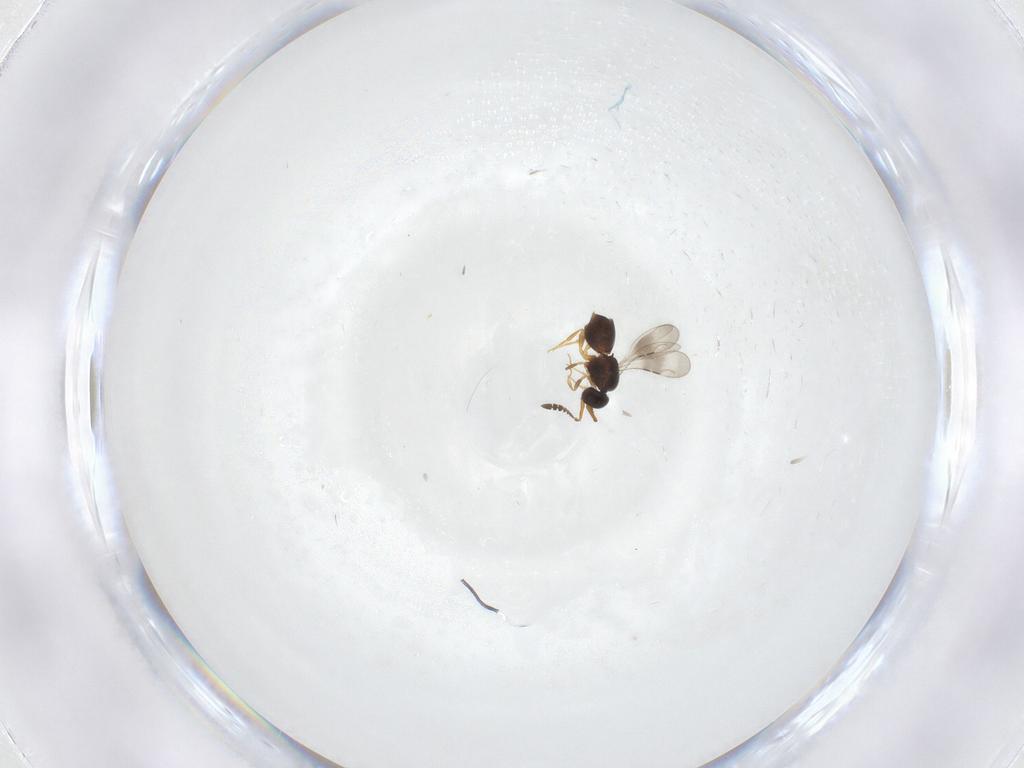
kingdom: Animalia
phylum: Arthropoda
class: Insecta
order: Hymenoptera
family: Ceraphronidae
